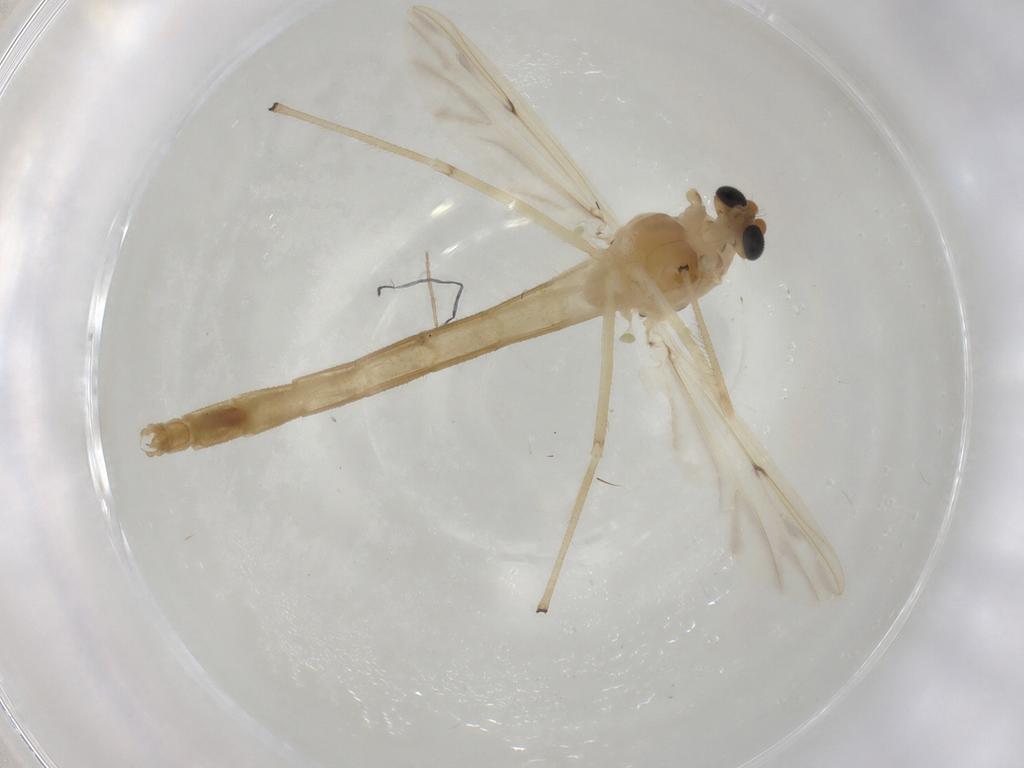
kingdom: Animalia
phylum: Arthropoda
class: Insecta
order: Diptera
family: Chironomidae
